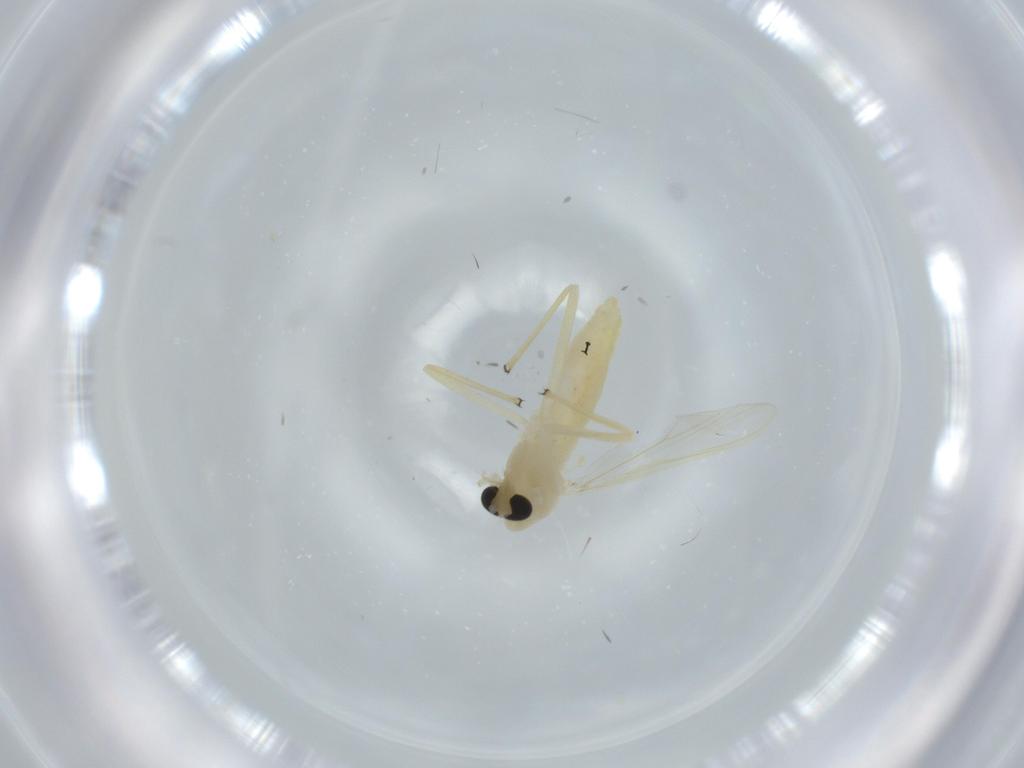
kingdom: Animalia
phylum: Arthropoda
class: Insecta
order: Diptera
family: Chironomidae
